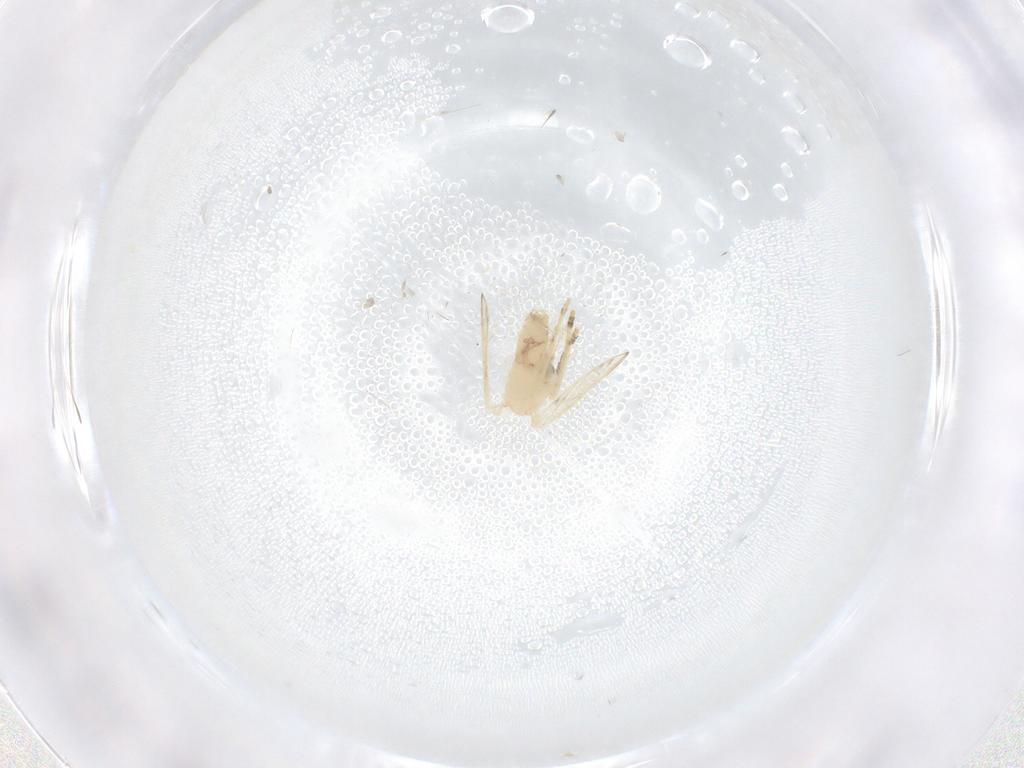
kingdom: Animalia
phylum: Arthropoda
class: Insecta
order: Diptera
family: Psychodidae
